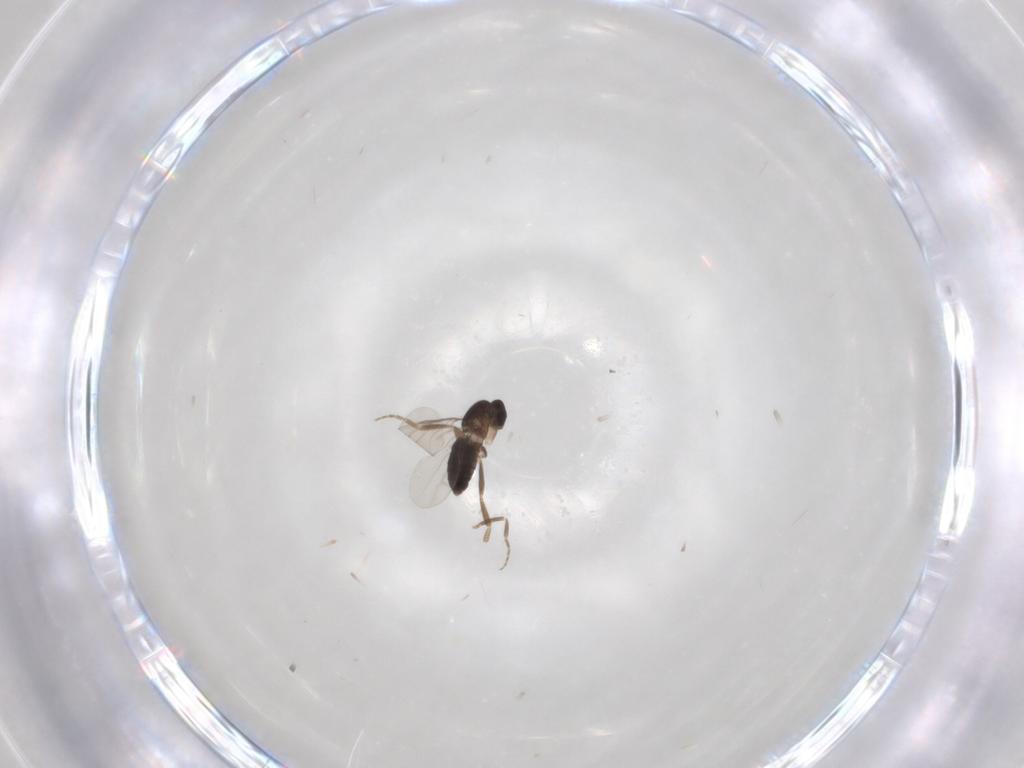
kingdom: Animalia
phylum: Arthropoda
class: Insecta
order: Diptera
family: Phoridae
